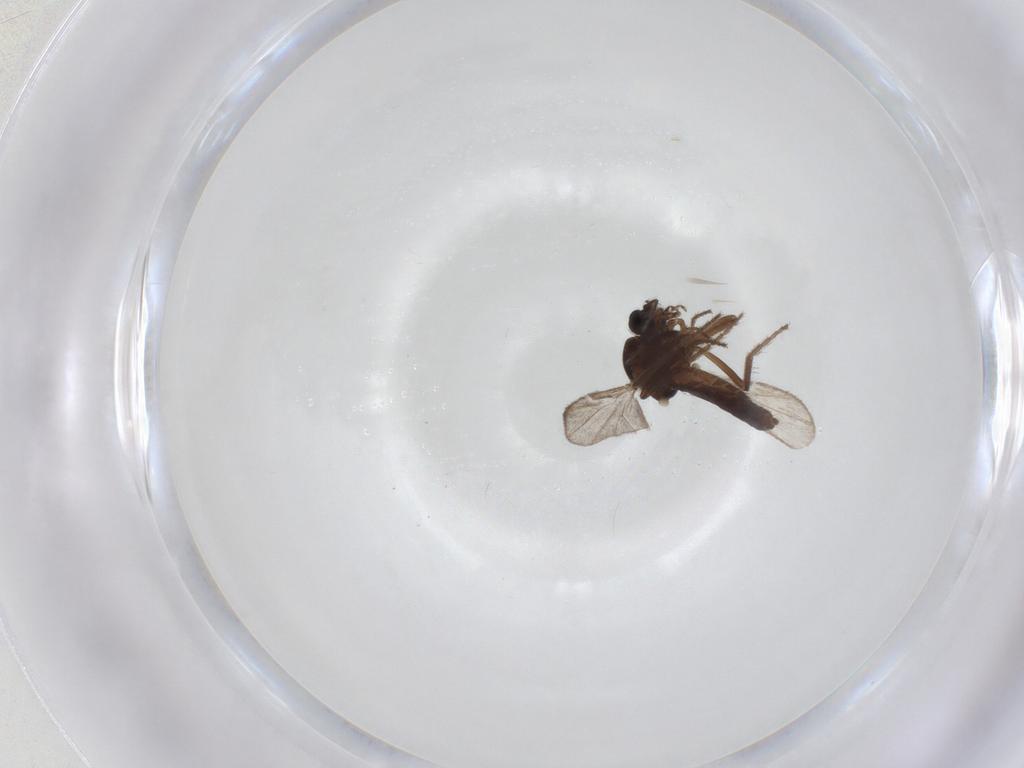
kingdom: Animalia
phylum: Arthropoda
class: Insecta
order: Diptera
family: Ceratopogonidae
